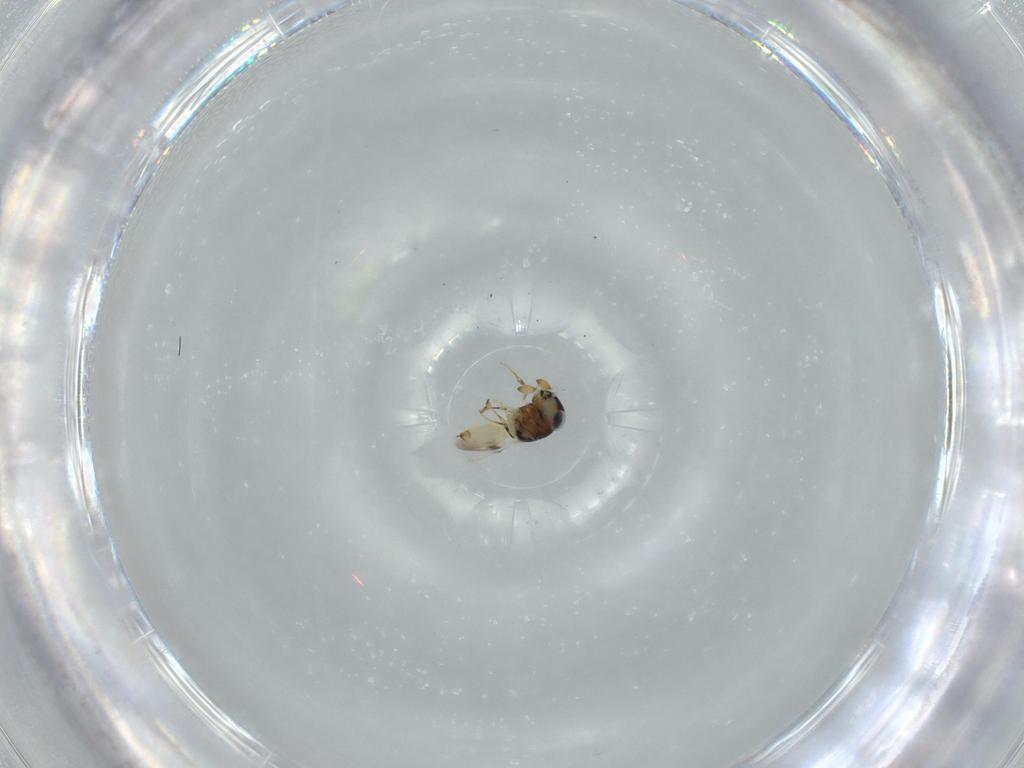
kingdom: Animalia
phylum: Arthropoda
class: Insecta
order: Hymenoptera
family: Scelionidae
